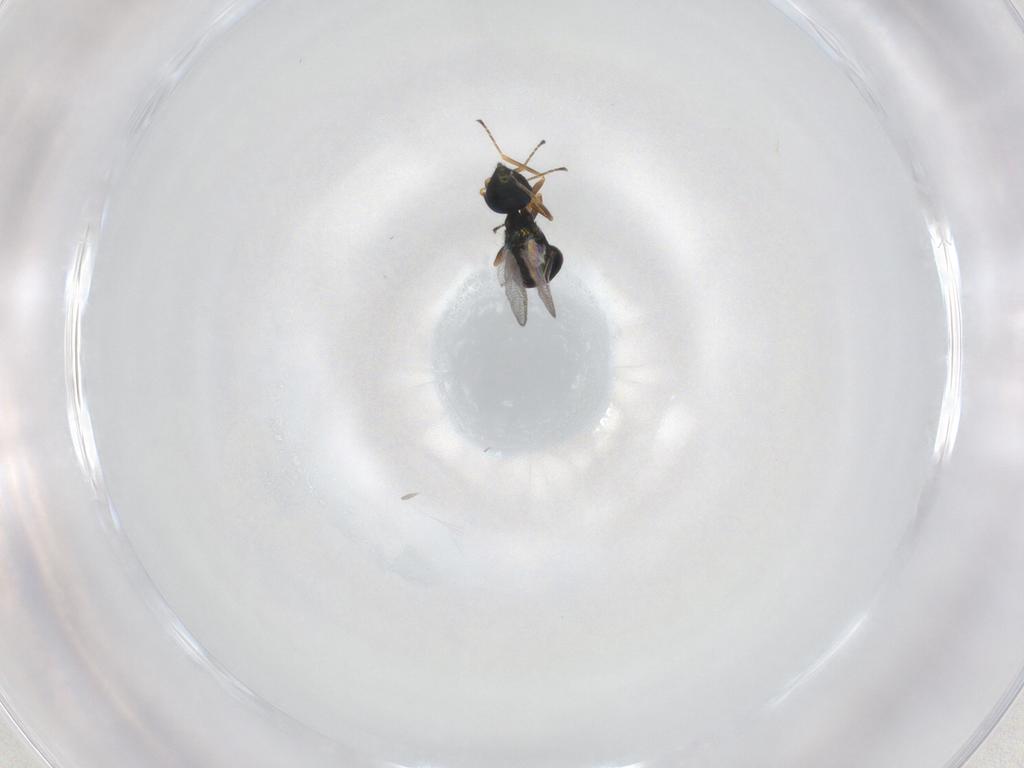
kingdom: Animalia
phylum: Arthropoda
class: Insecta
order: Hymenoptera
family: Pteromalidae
